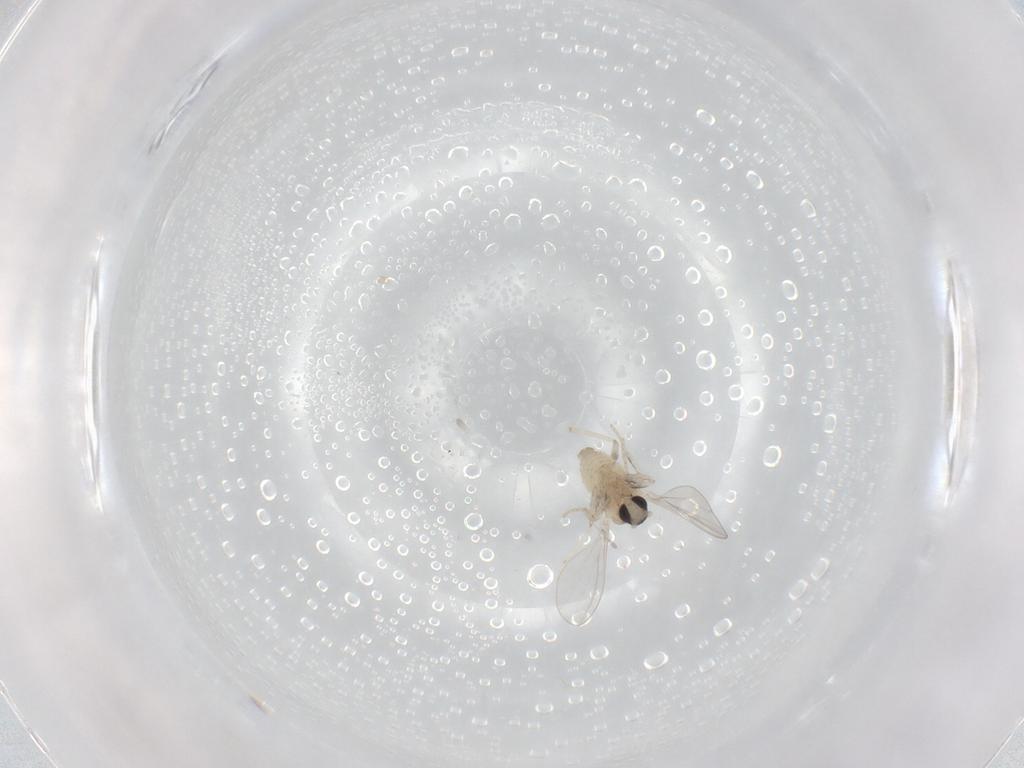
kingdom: Animalia
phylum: Arthropoda
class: Insecta
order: Diptera
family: Cecidomyiidae
